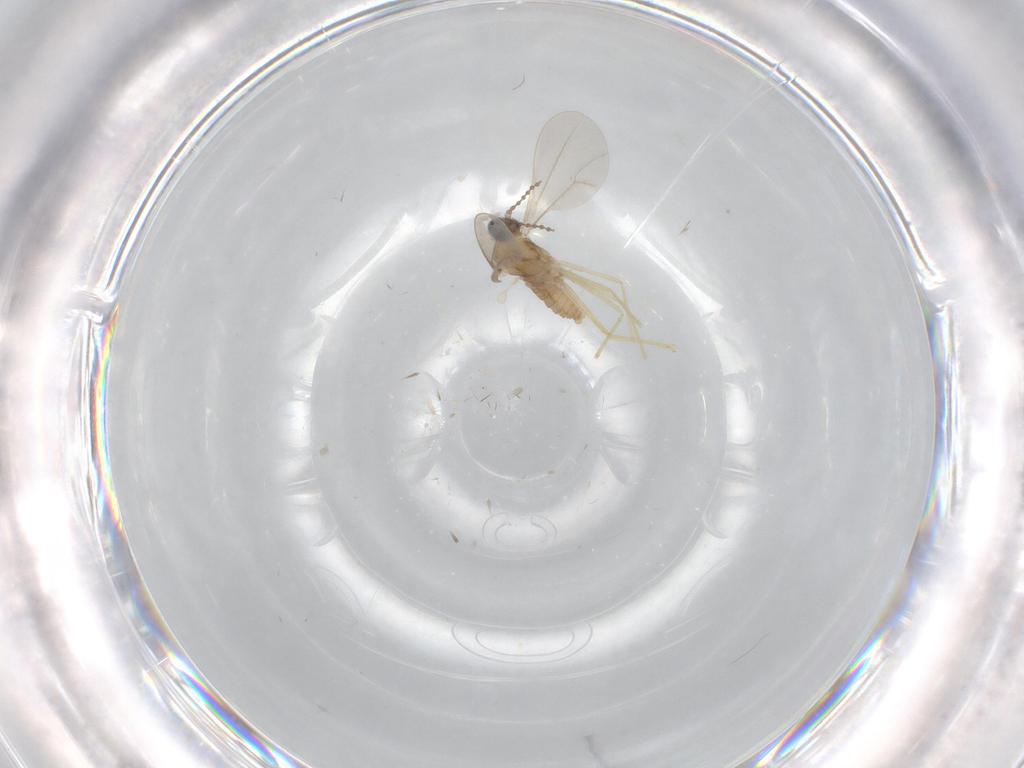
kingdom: Animalia
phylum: Arthropoda
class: Insecta
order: Diptera
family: Cecidomyiidae
